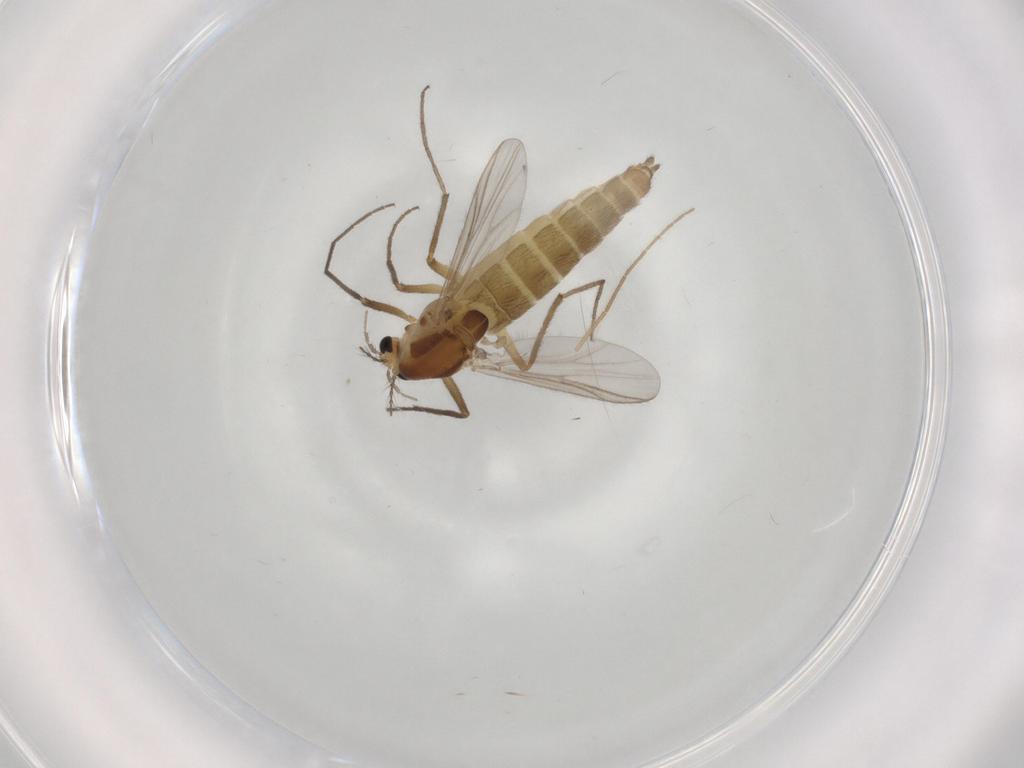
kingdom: Animalia
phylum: Arthropoda
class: Insecta
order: Diptera
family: Chironomidae
